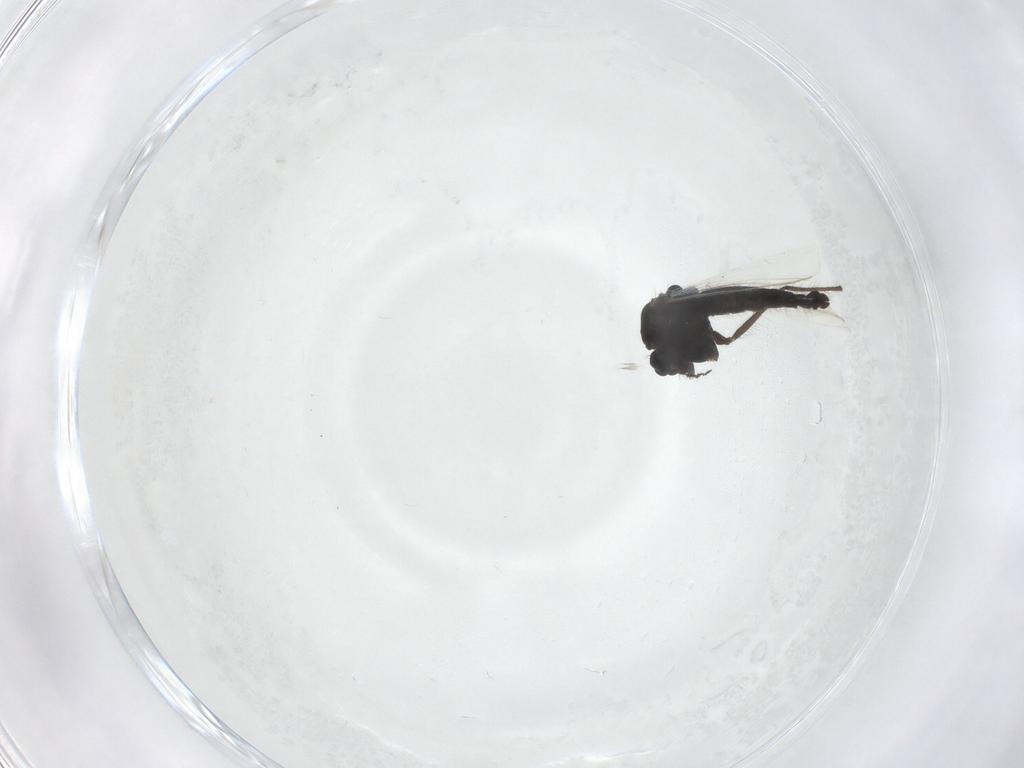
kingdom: Animalia
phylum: Arthropoda
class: Insecta
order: Diptera
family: Chironomidae
